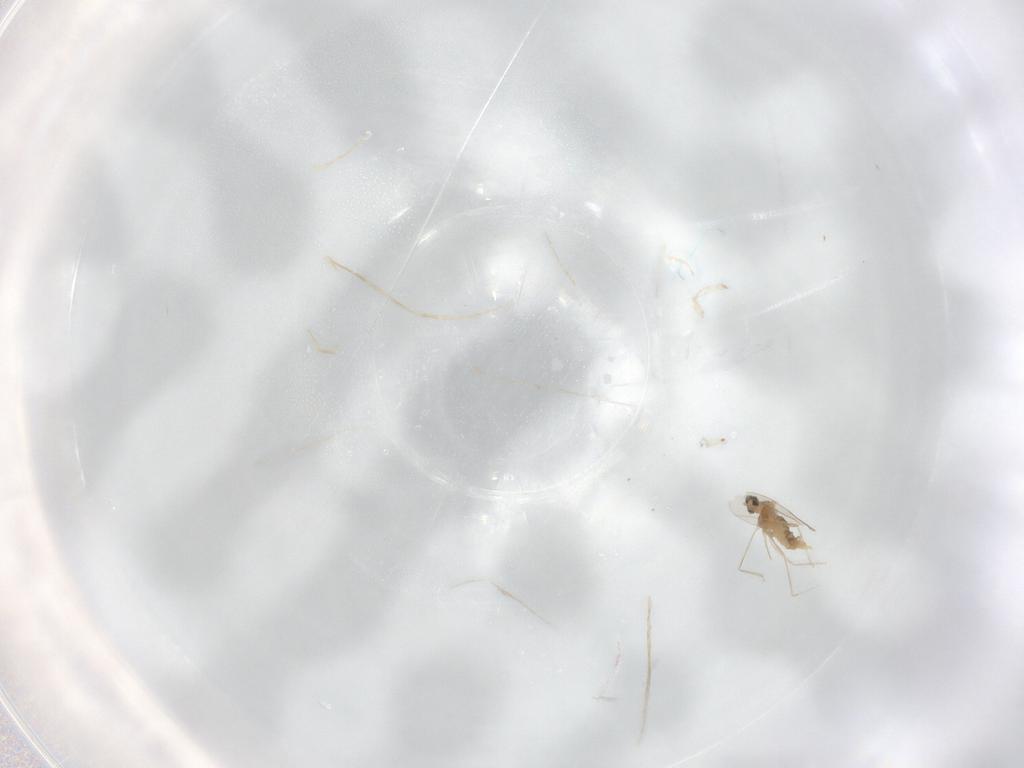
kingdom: Animalia
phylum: Arthropoda
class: Insecta
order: Diptera
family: Cecidomyiidae
